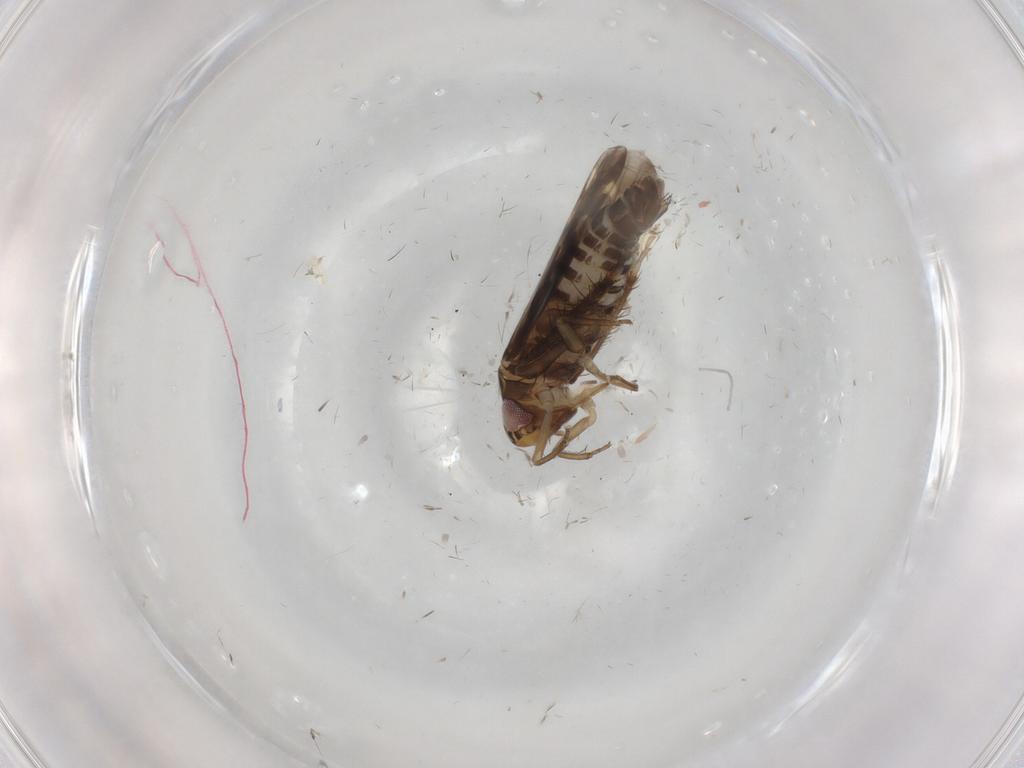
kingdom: Animalia
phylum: Arthropoda
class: Insecta
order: Hemiptera
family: Cicadellidae
